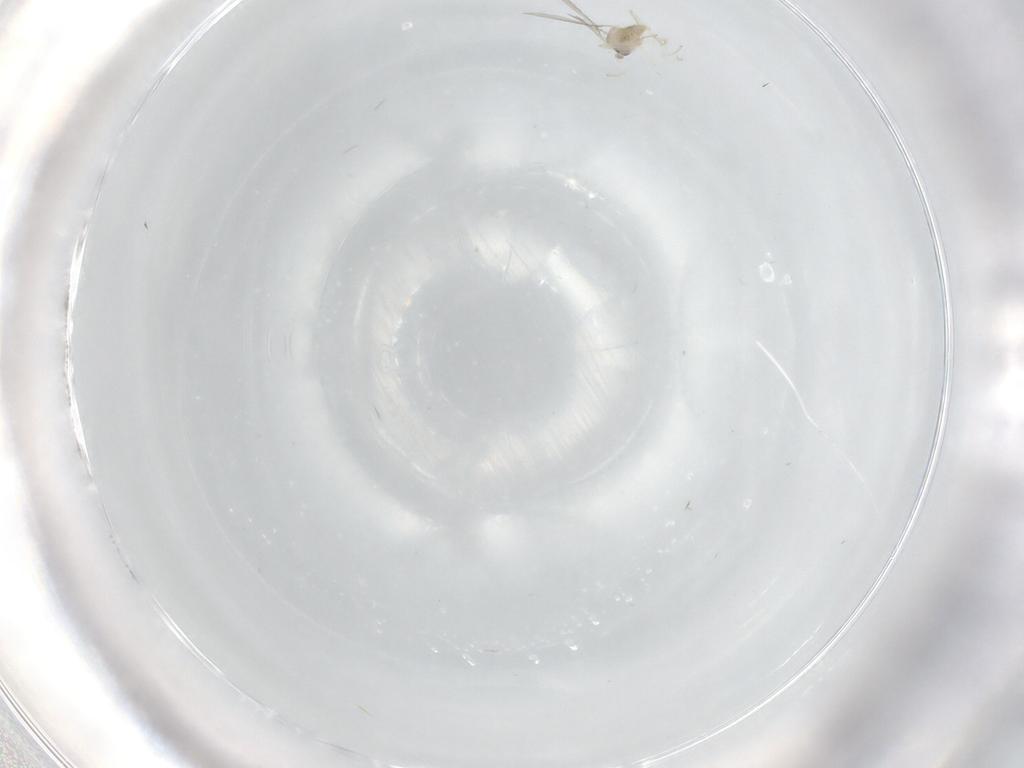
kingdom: Animalia
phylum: Arthropoda
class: Insecta
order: Diptera
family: Cecidomyiidae
